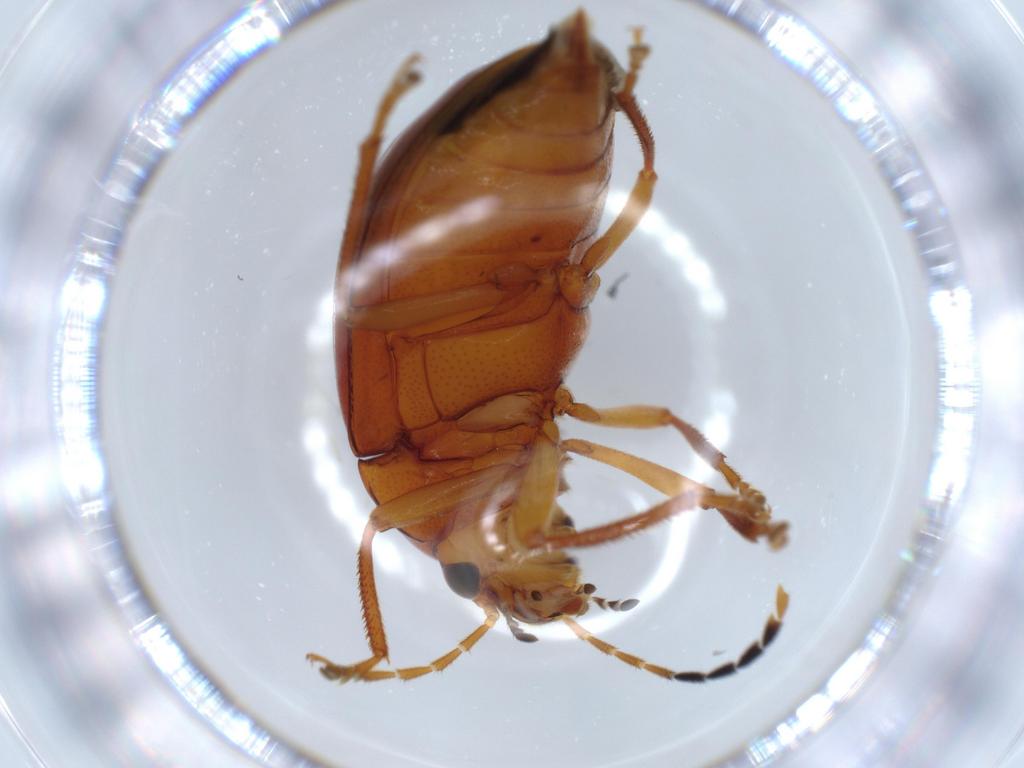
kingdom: Animalia
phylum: Arthropoda
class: Insecta
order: Coleoptera
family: Ptilodactylidae
